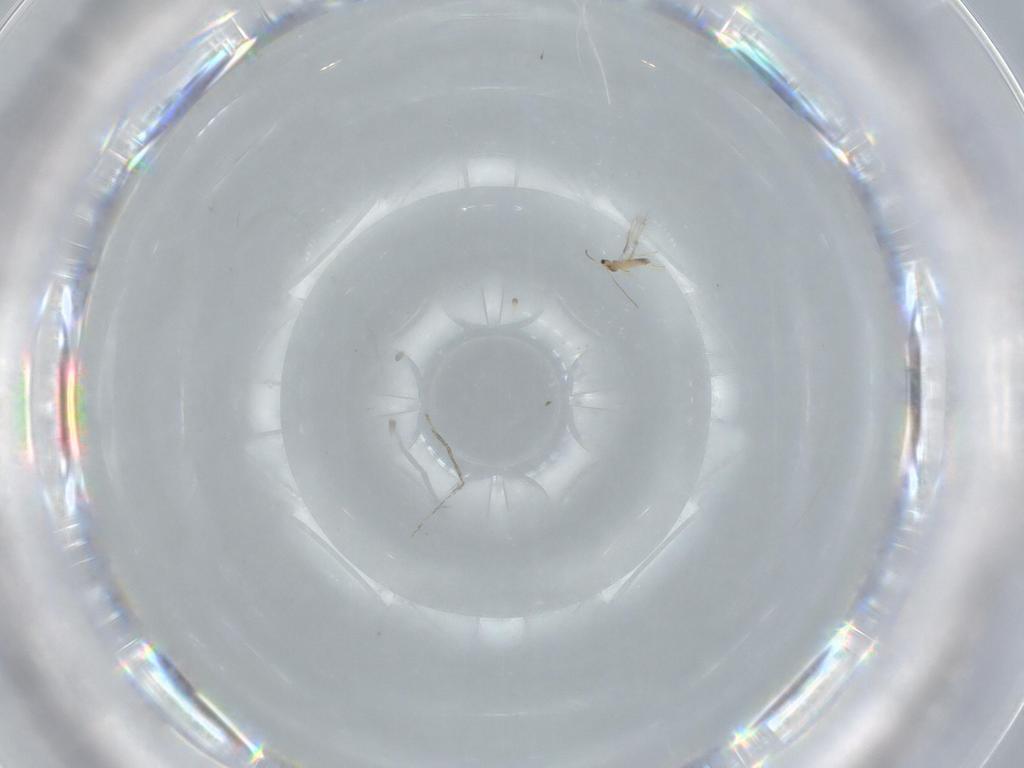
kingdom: Animalia
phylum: Arthropoda
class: Insecta
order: Hymenoptera
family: Mymaridae
